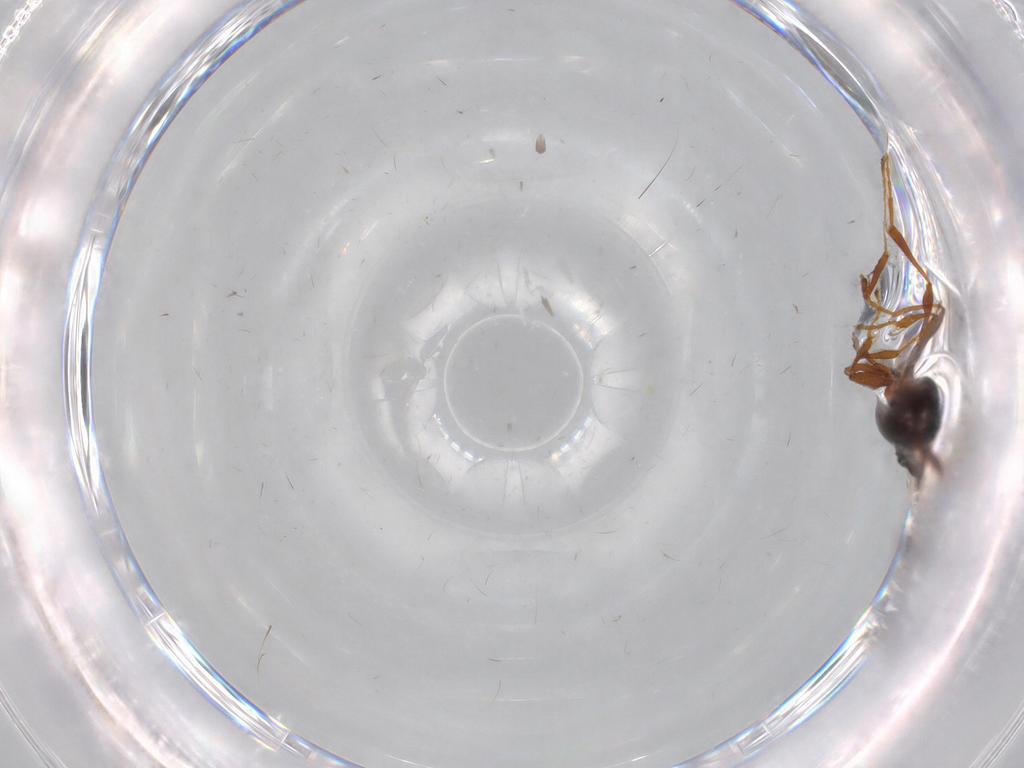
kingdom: Animalia
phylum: Arthropoda
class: Insecta
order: Hymenoptera
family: Diapriidae
